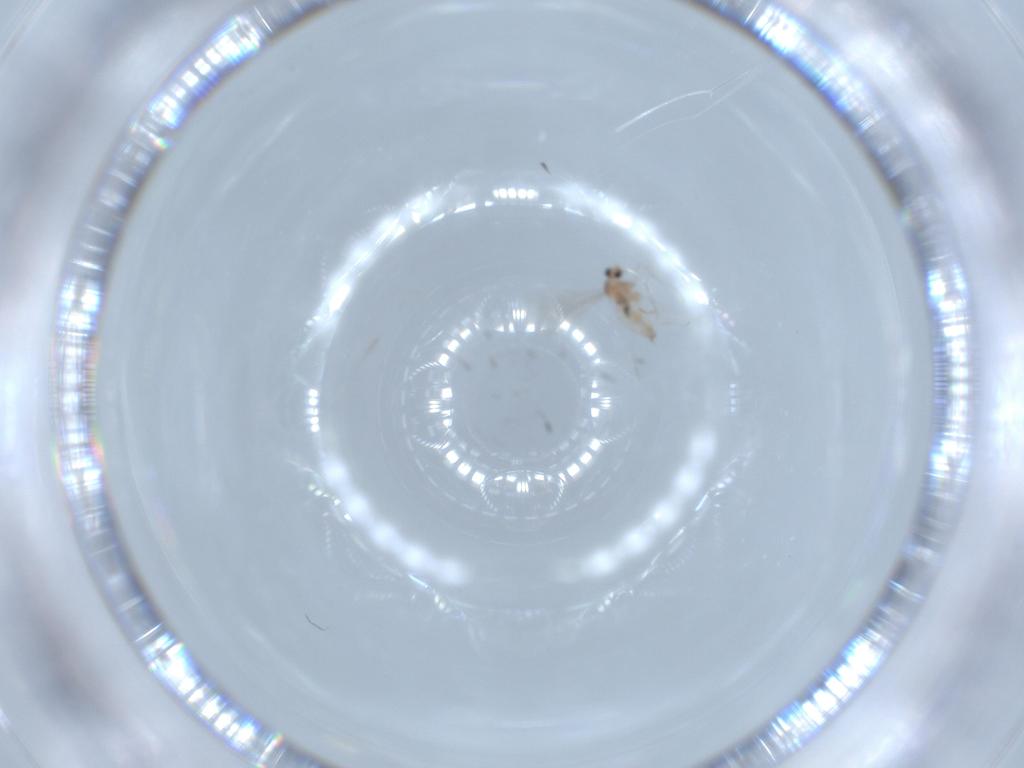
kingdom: Animalia
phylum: Arthropoda
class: Insecta
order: Diptera
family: Cecidomyiidae
